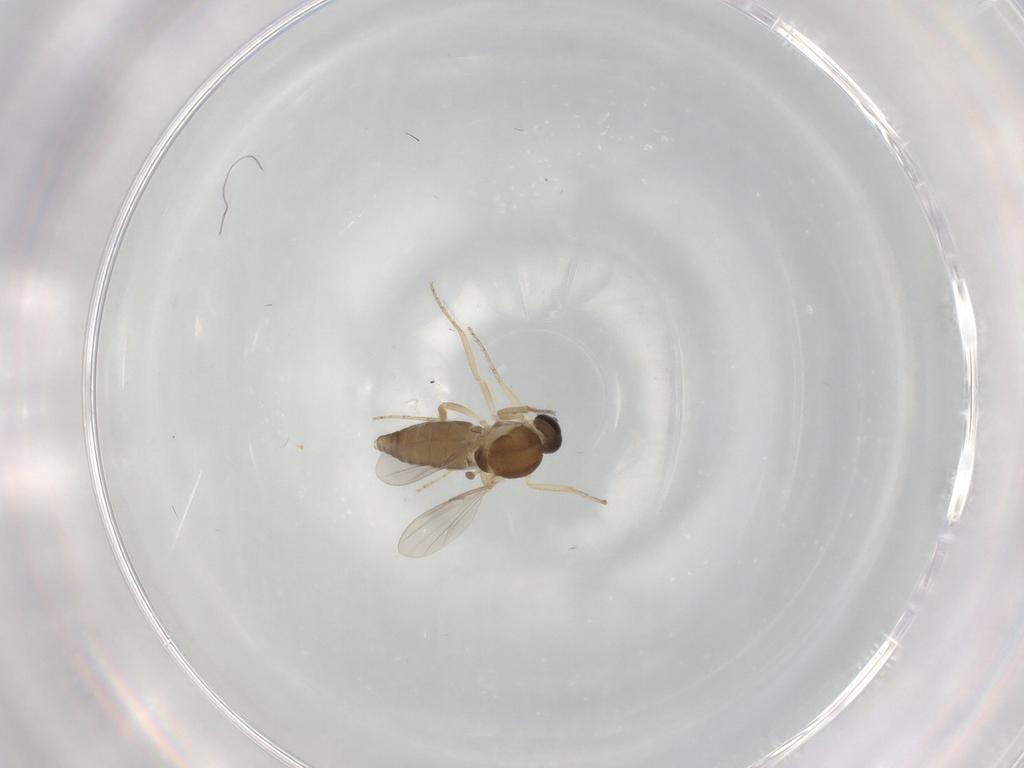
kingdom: Animalia
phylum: Arthropoda
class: Insecta
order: Diptera
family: Ceratopogonidae
